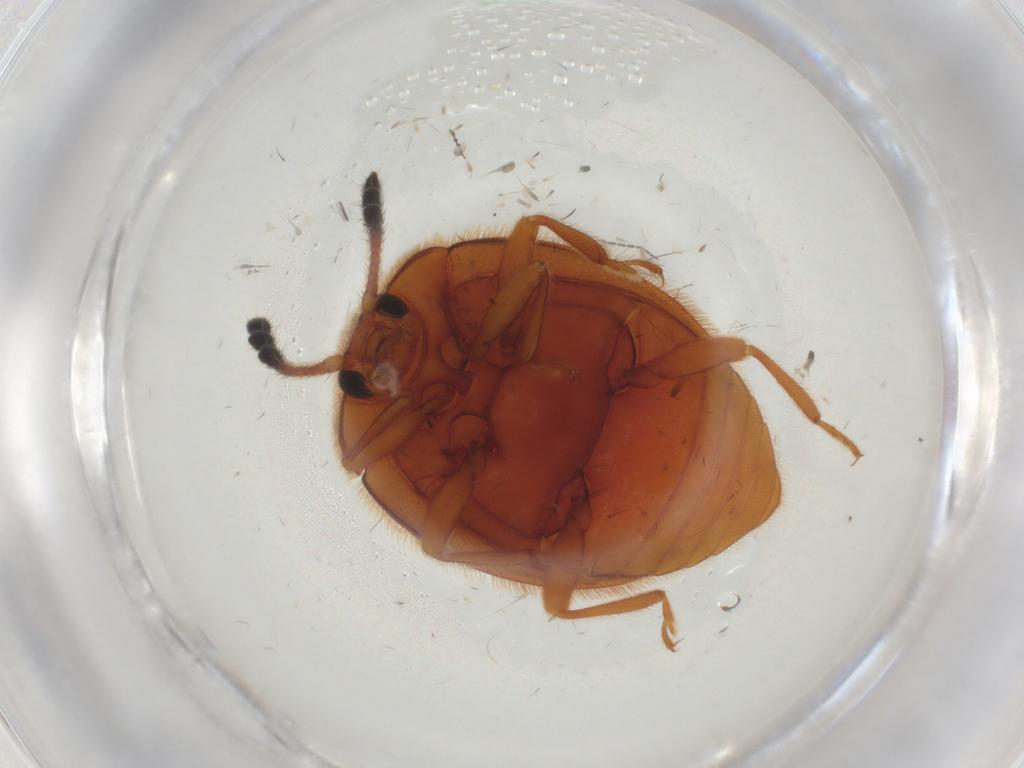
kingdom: Animalia
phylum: Arthropoda
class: Insecta
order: Coleoptera
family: Endomychidae
